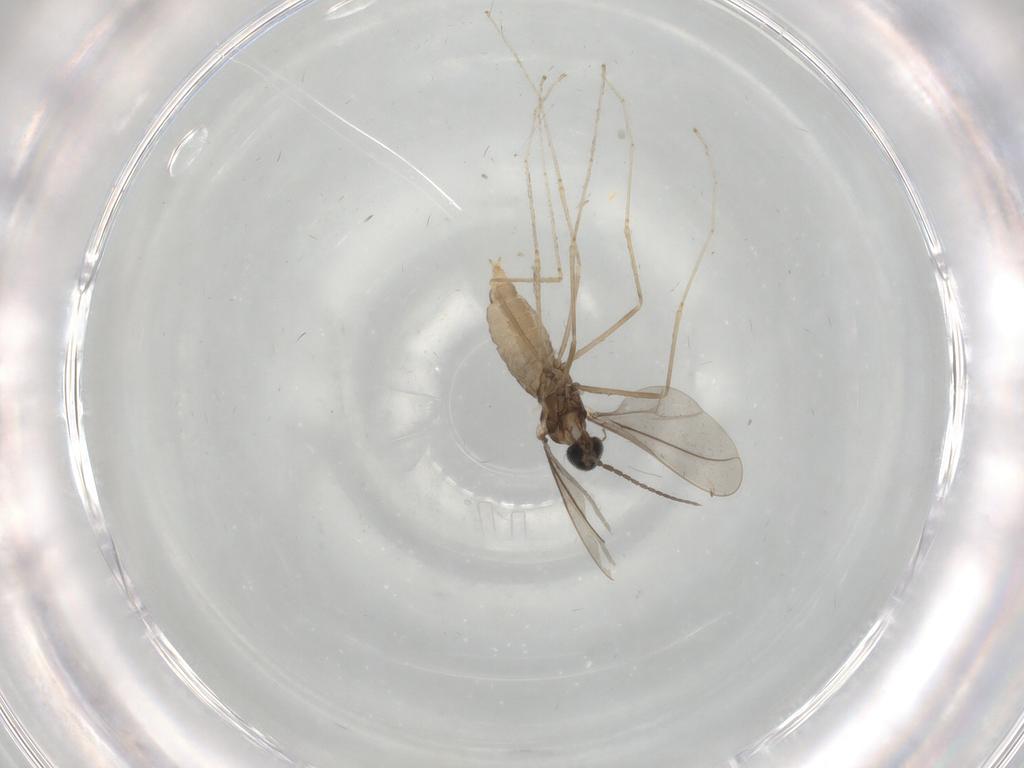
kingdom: Animalia
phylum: Arthropoda
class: Insecta
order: Diptera
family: Cecidomyiidae
